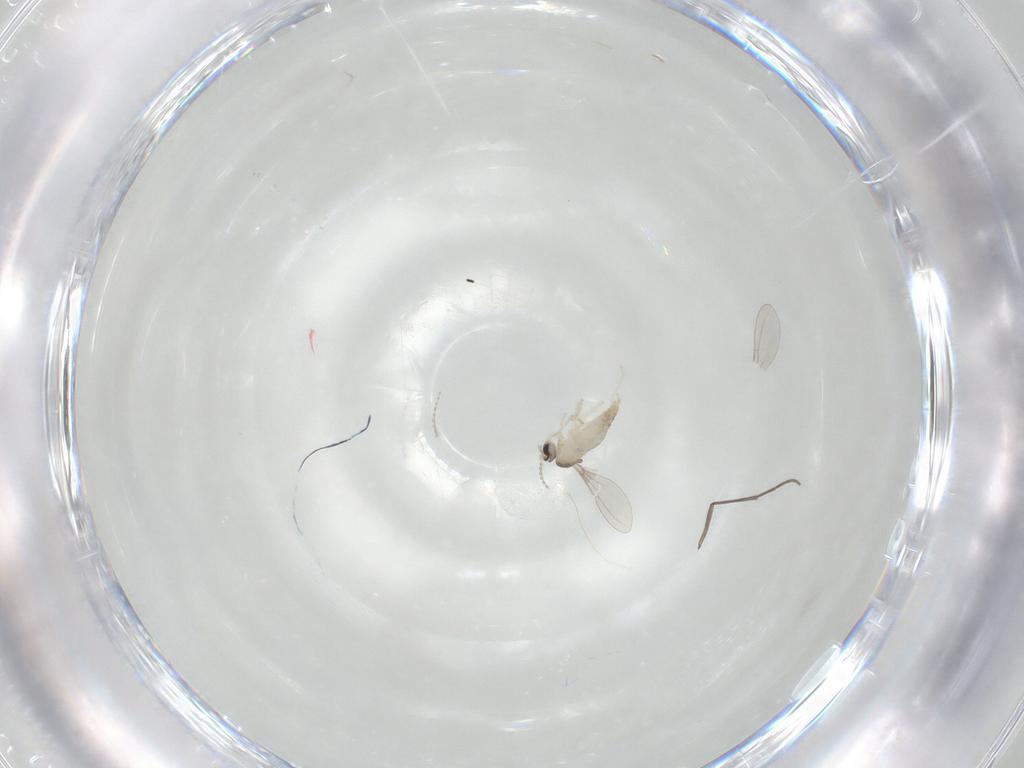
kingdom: Animalia
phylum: Arthropoda
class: Insecta
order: Diptera
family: Cecidomyiidae
